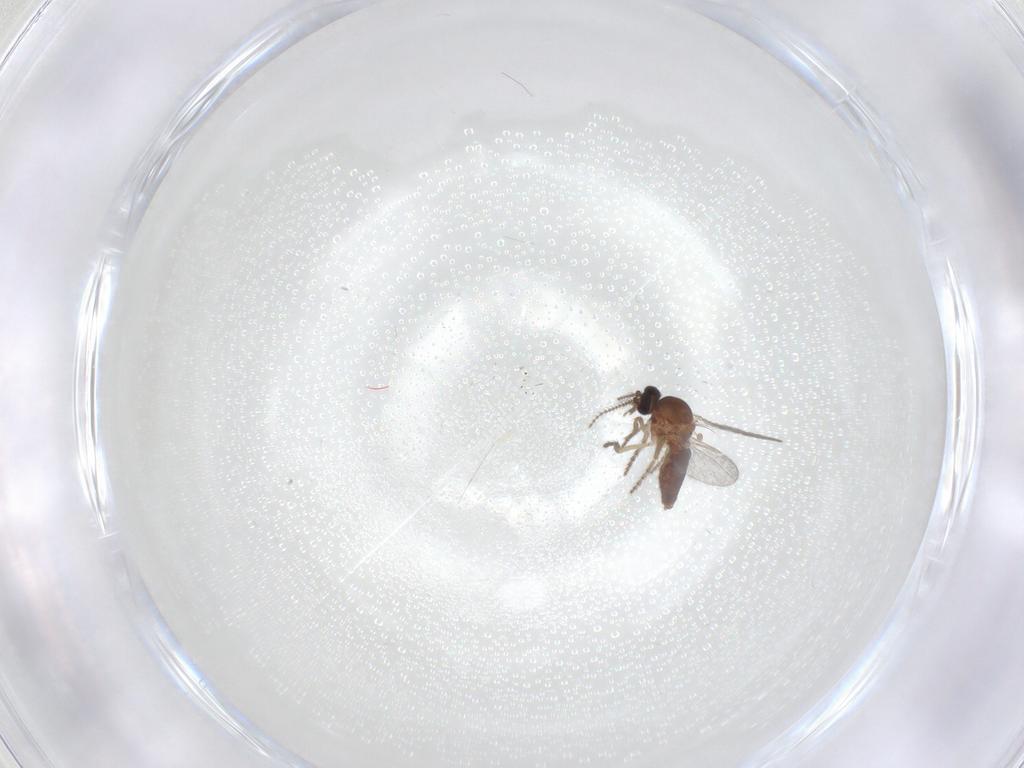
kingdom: Animalia
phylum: Arthropoda
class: Insecta
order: Diptera
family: Ceratopogonidae
